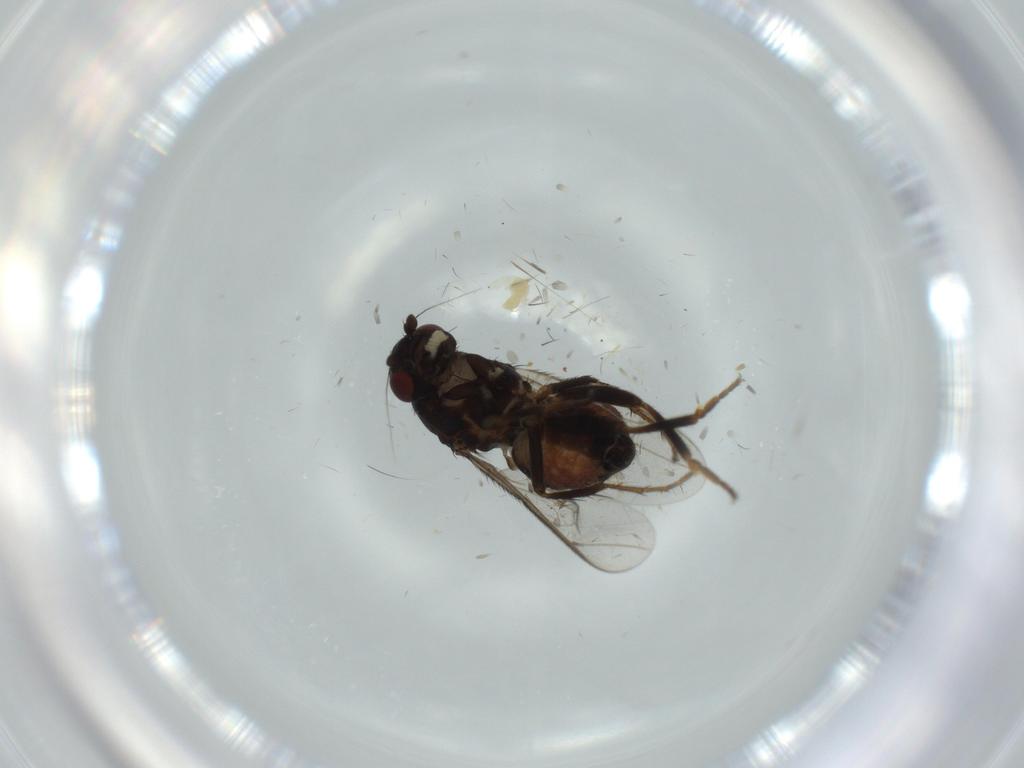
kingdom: Animalia
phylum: Arthropoda
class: Insecta
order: Diptera
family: Sphaeroceridae
